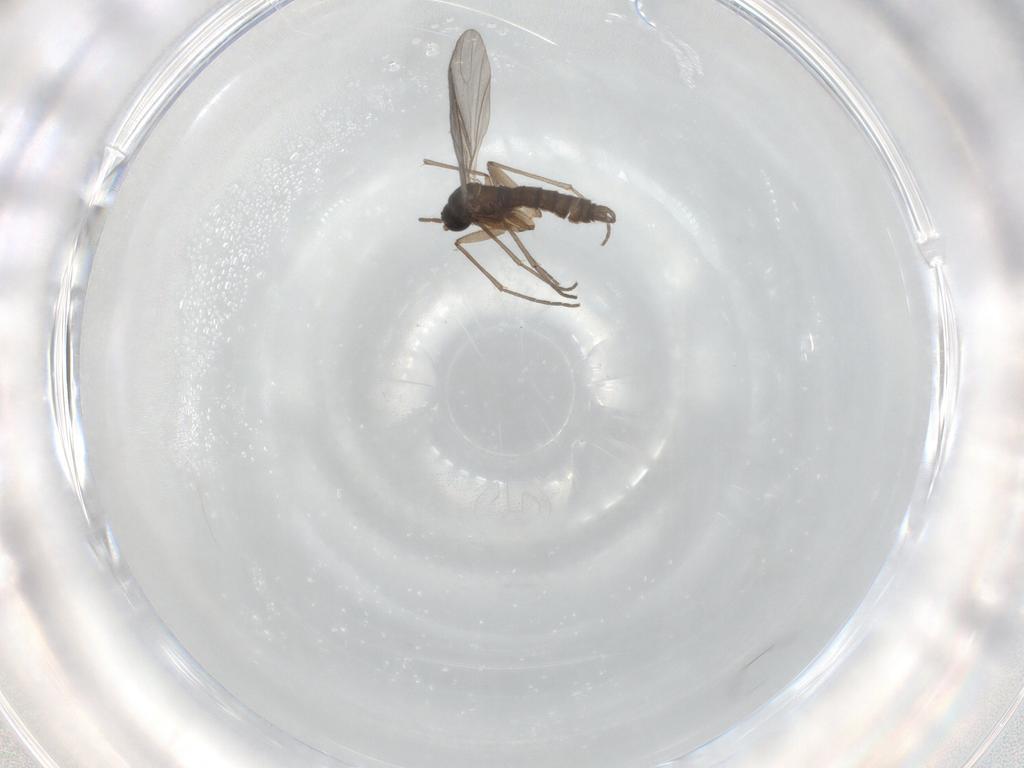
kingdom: Animalia
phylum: Arthropoda
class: Insecta
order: Diptera
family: Sciaridae
